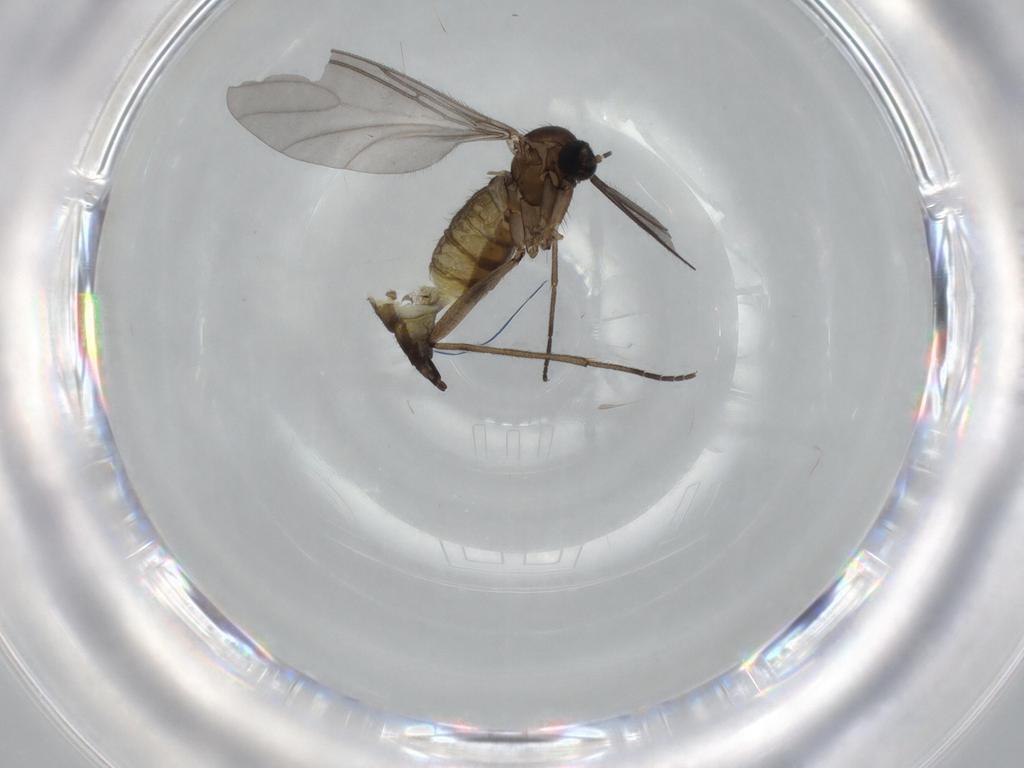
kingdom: Animalia
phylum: Arthropoda
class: Insecta
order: Diptera
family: Sciaridae
